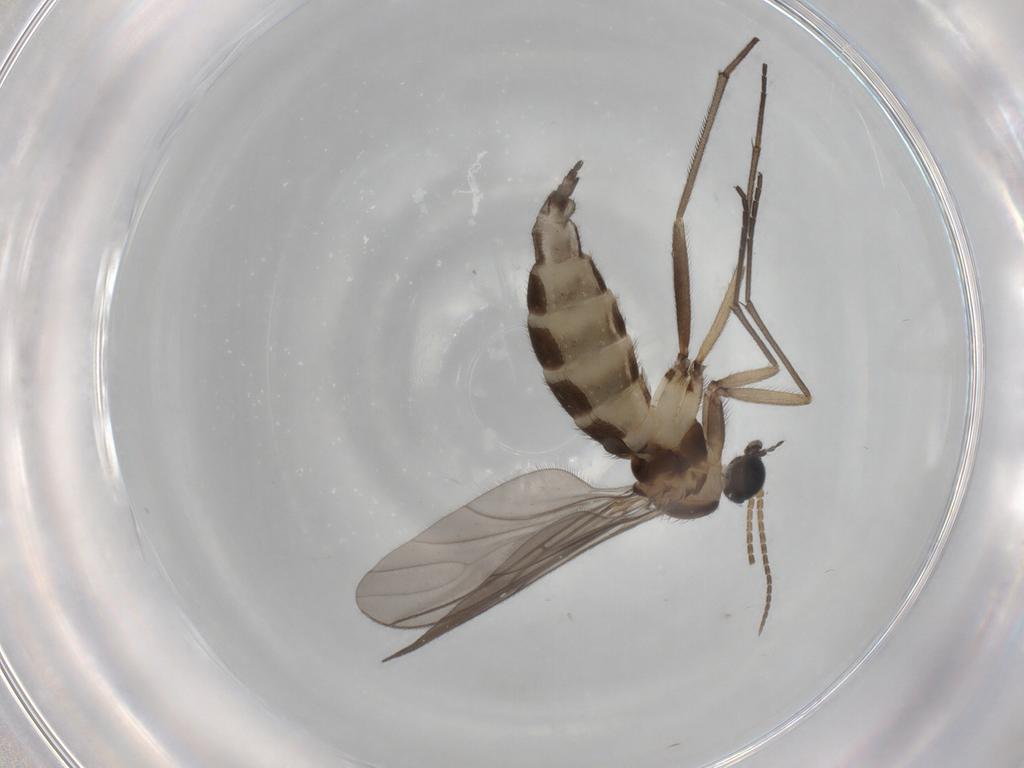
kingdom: Animalia
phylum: Arthropoda
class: Insecta
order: Diptera
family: Sciaridae
